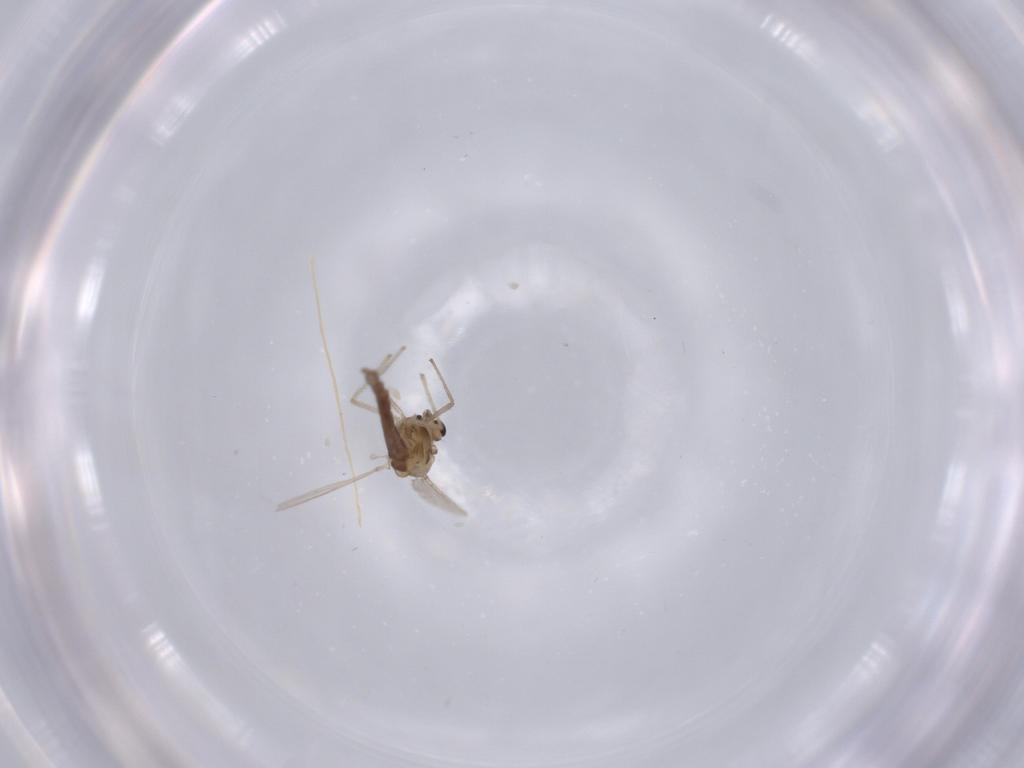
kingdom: Animalia
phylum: Arthropoda
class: Insecta
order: Diptera
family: Chironomidae
